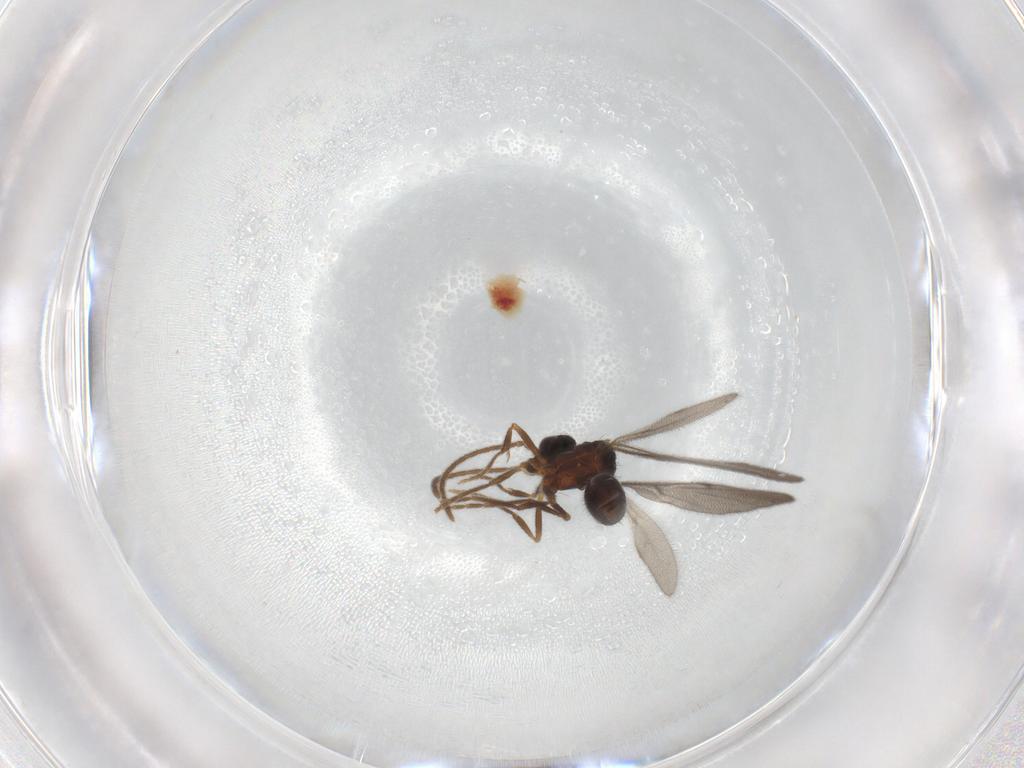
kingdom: Animalia
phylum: Arthropoda
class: Insecta
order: Hymenoptera
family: Formicidae
